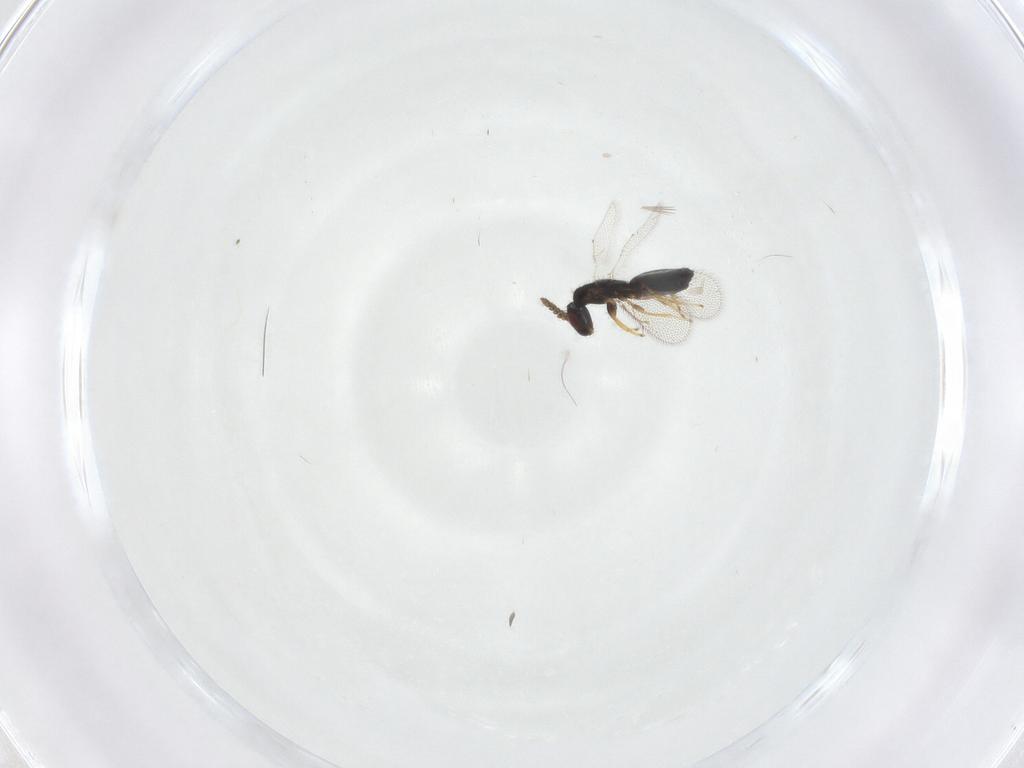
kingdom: Animalia
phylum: Arthropoda
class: Insecta
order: Hymenoptera
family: Eulophidae
